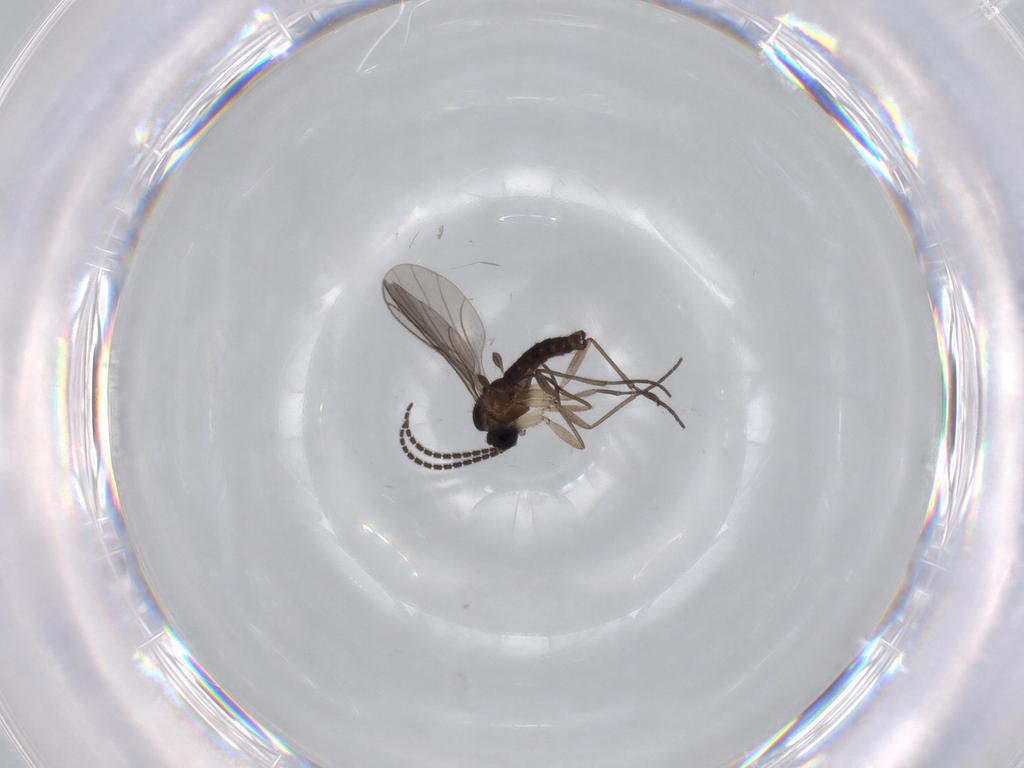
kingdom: Animalia
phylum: Arthropoda
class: Insecta
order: Diptera
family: Sciaridae
